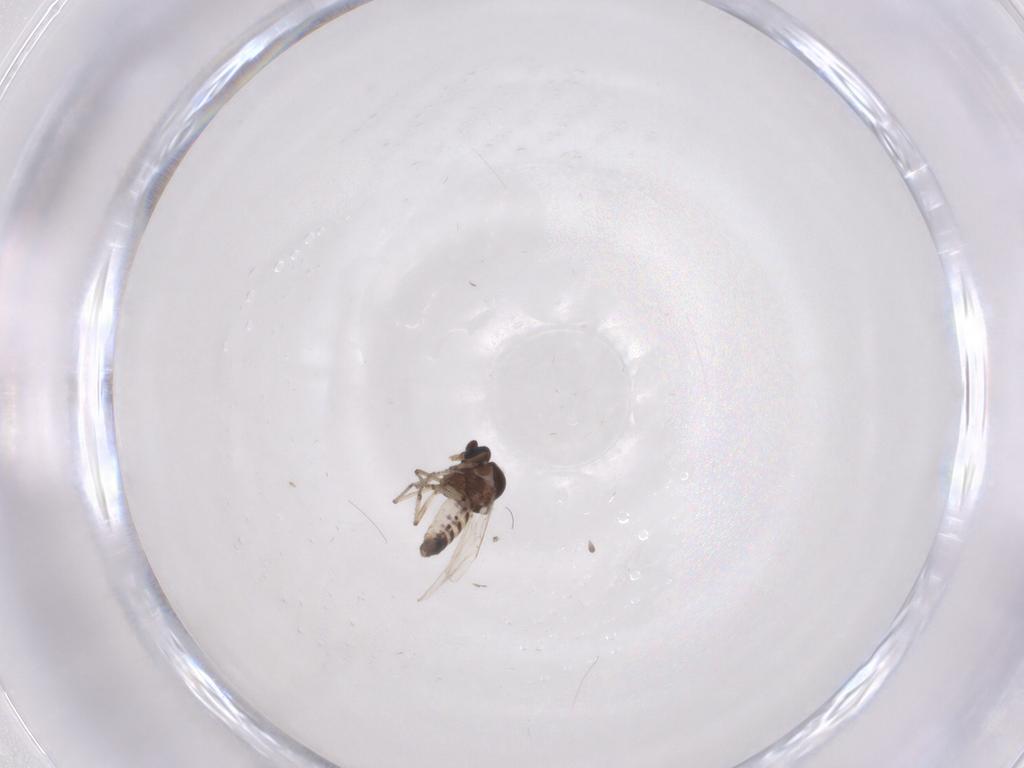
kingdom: Animalia
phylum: Arthropoda
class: Insecta
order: Diptera
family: Ceratopogonidae
